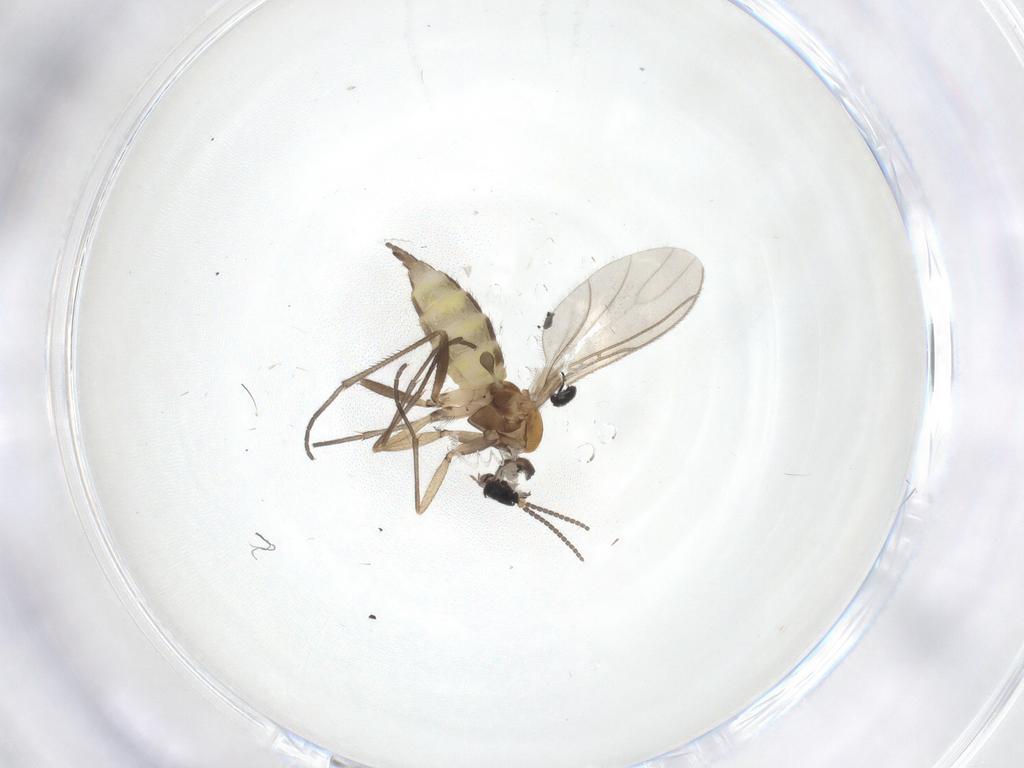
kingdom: Animalia
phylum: Arthropoda
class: Insecta
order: Diptera
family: Sciaridae
